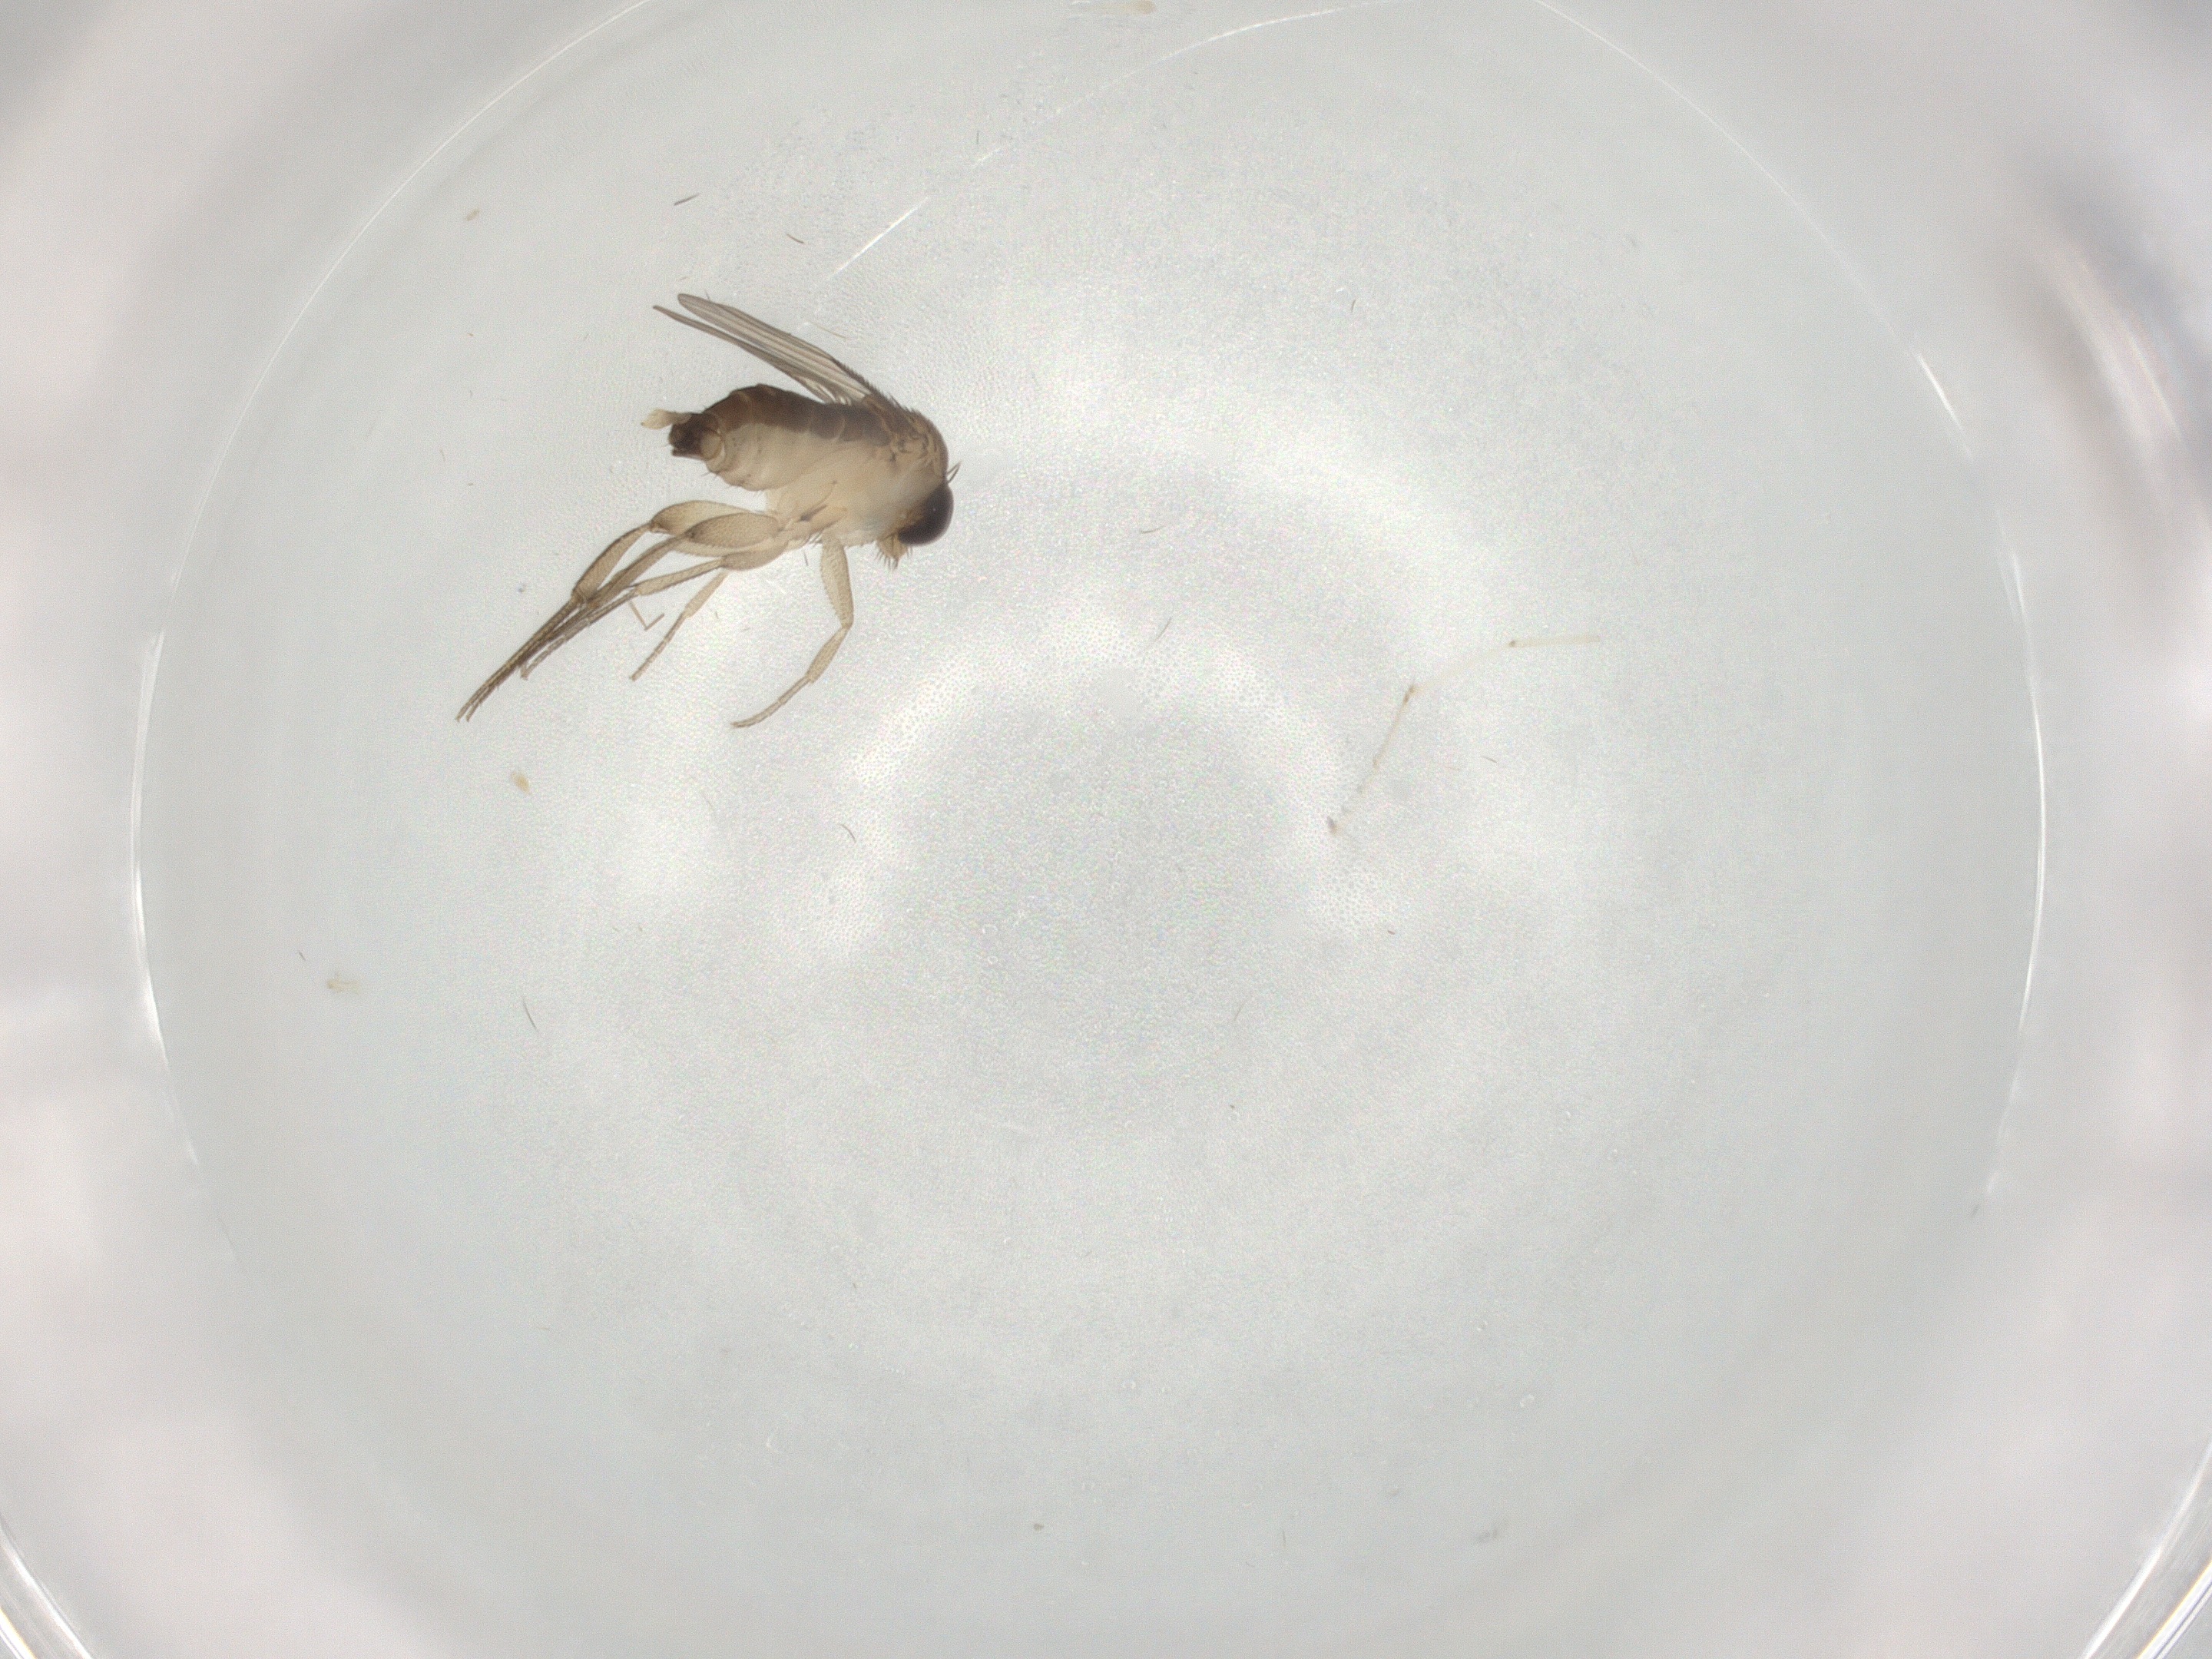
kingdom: Animalia
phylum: Arthropoda
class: Insecta
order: Diptera
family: Phoridae
